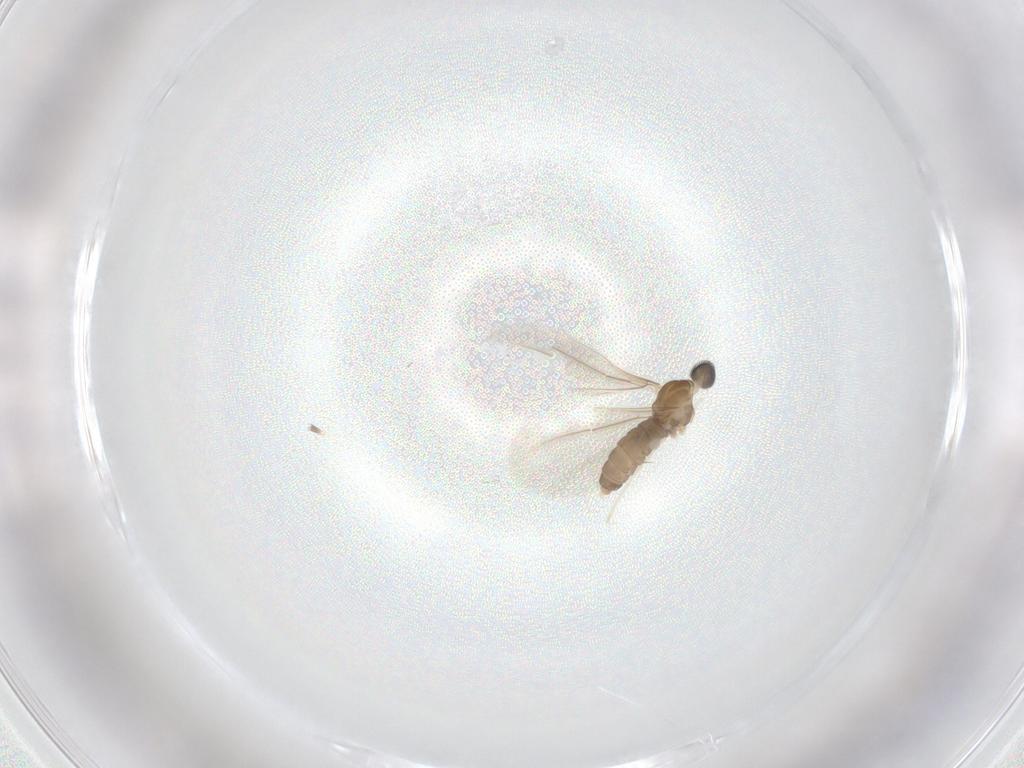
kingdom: Animalia
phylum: Arthropoda
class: Insecta
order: Diptera
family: Cecidomyiidae
